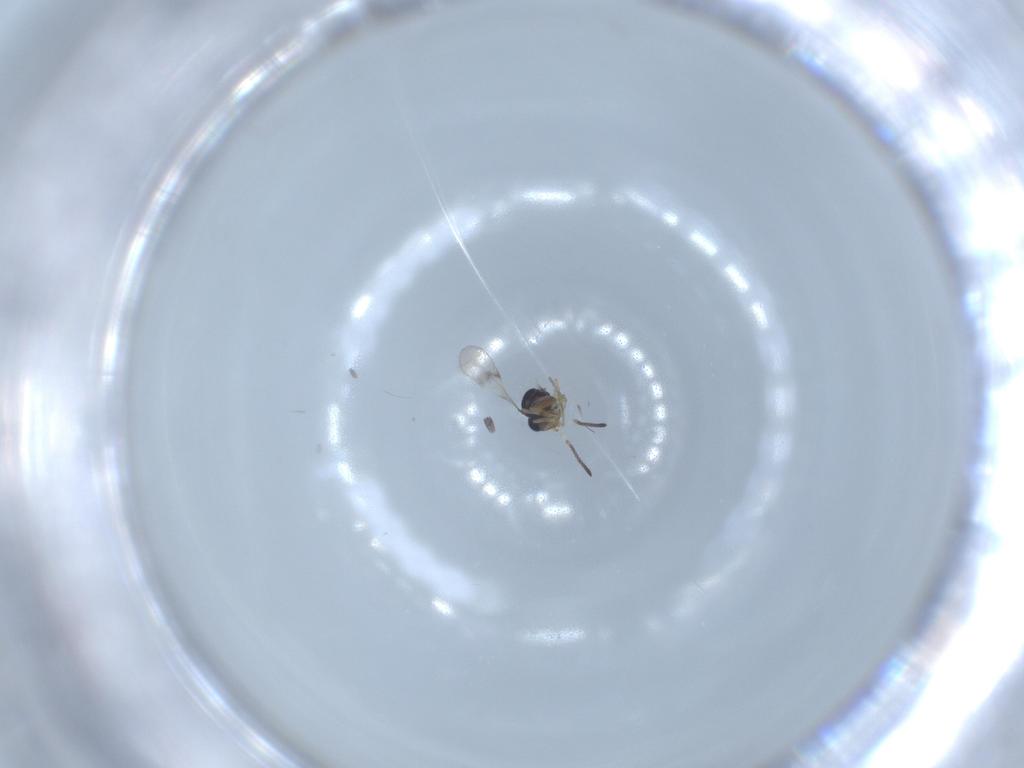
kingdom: Animalia
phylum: Arthropoda
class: Insecta
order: Hymenoptera
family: Scelionidae
